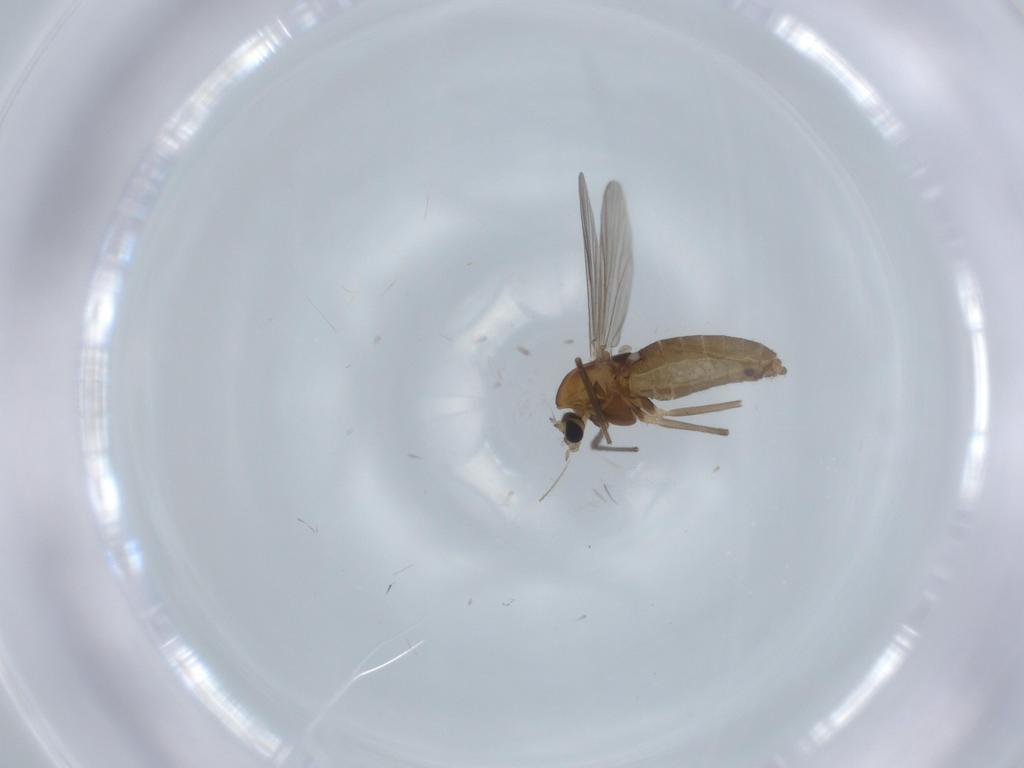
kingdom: Animalia
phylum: Arthropoda
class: Insecta
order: Diptera
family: Chironomidae
